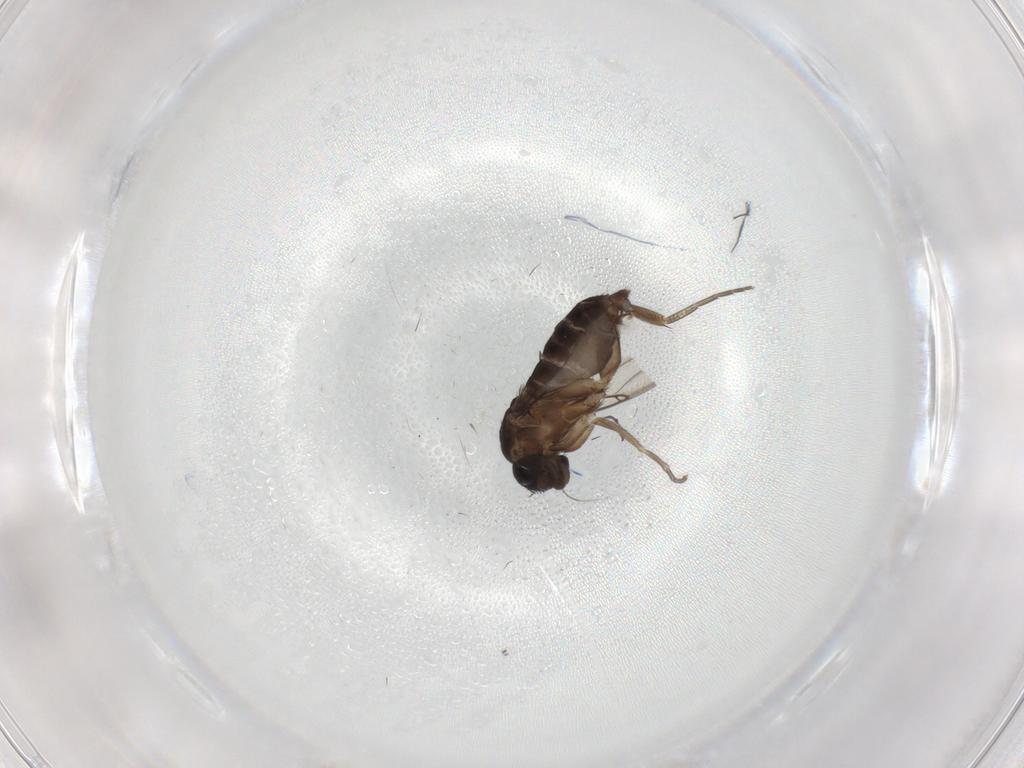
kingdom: Animalia
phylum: Arthropoda
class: Insecta
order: Diptera
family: Phoridae
